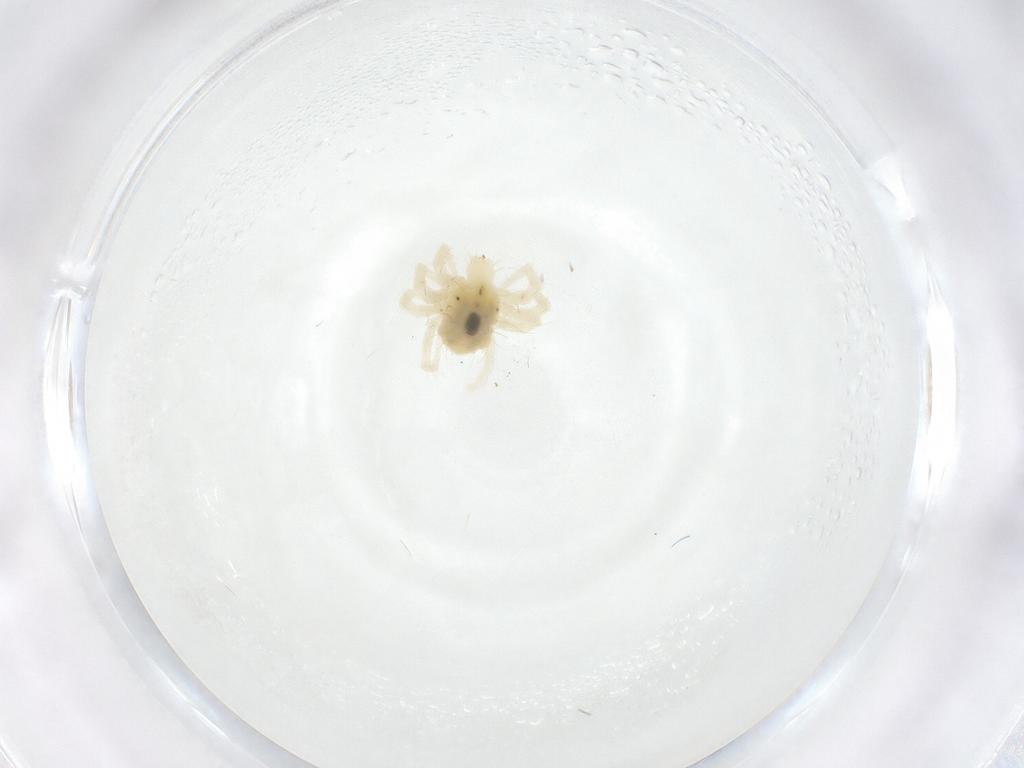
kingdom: Animalia
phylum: Arthropoda
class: Arachnida
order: Trombidiformes
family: Anystidae
